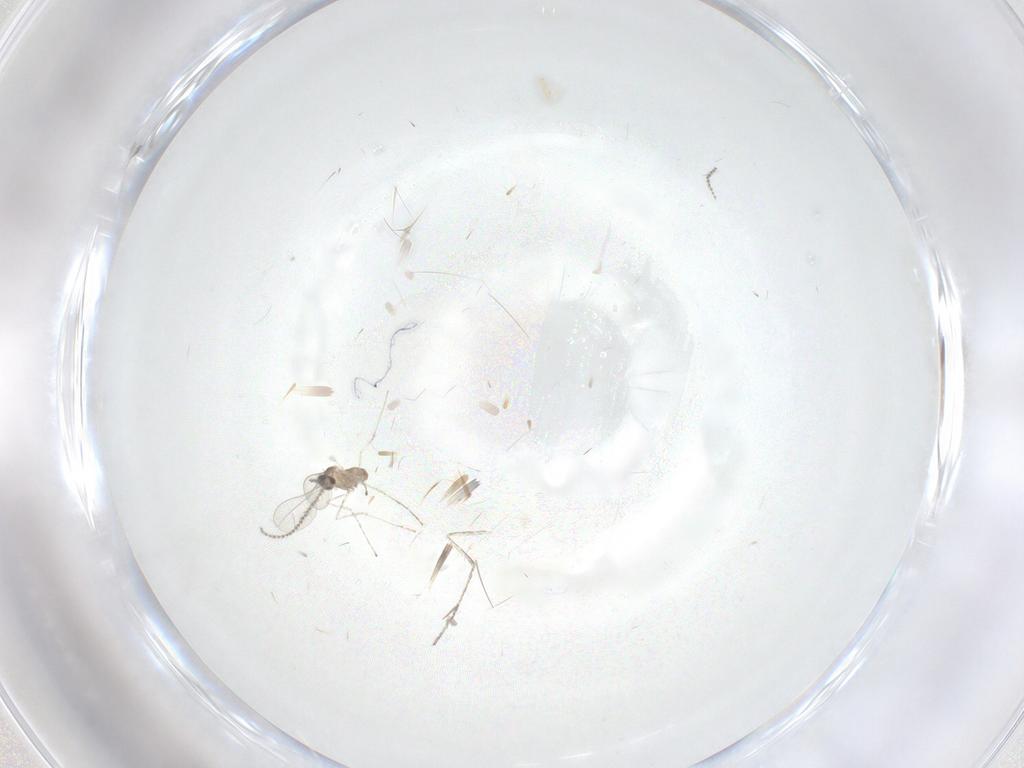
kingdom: Animalia
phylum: Arthropoda
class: Insecta
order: Diptera
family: Cecidomyiidae
